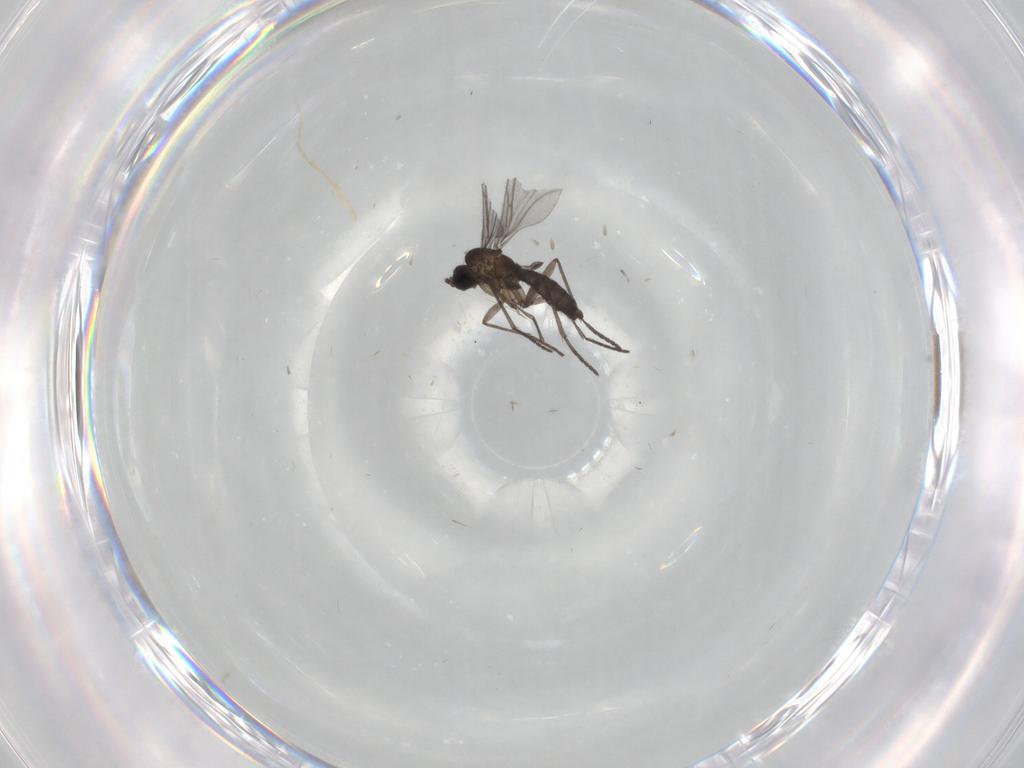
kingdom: Animalia
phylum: Arthropoda
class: Insecta
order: Diptera
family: Sciaridae
